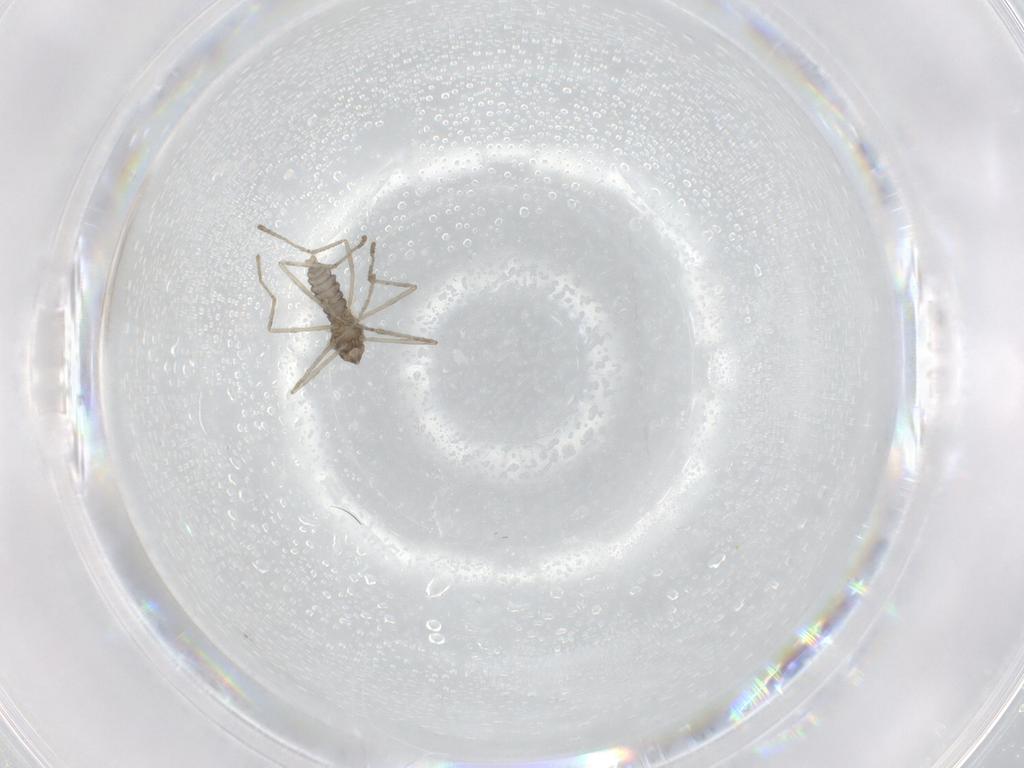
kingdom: Animalia
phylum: Arthropoda
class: Insecta
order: Diptera
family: Cecidomyiidae
